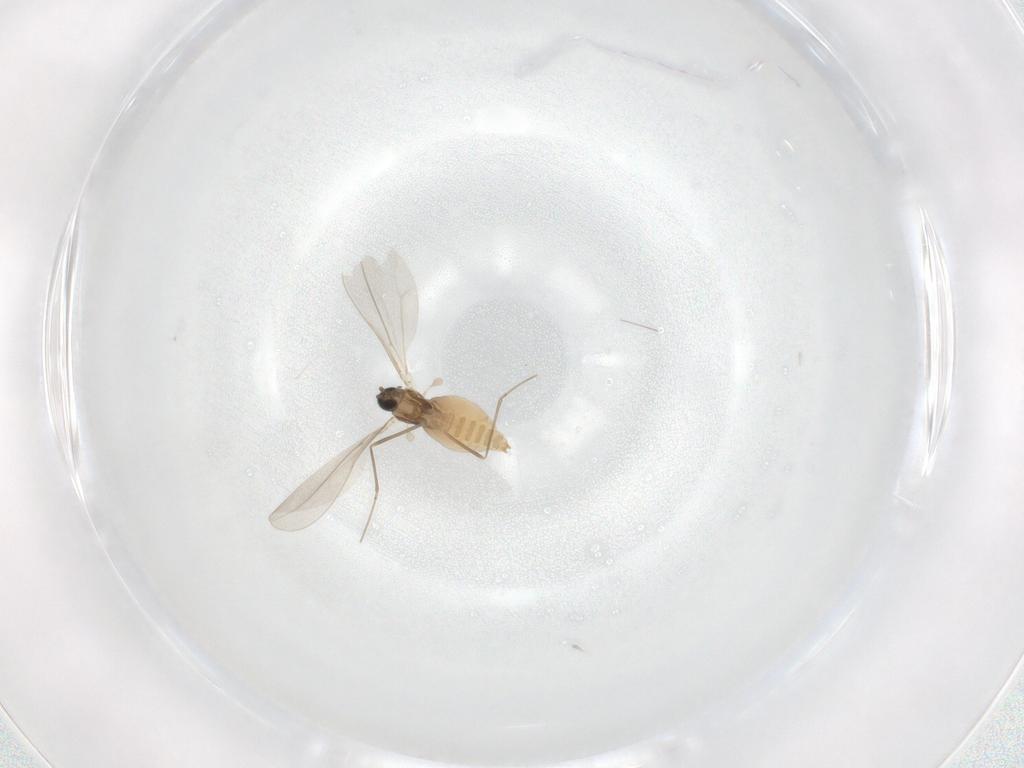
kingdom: Animalia
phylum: Arthropoda
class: Insecta
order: Diptera
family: Cecidomyiidae
